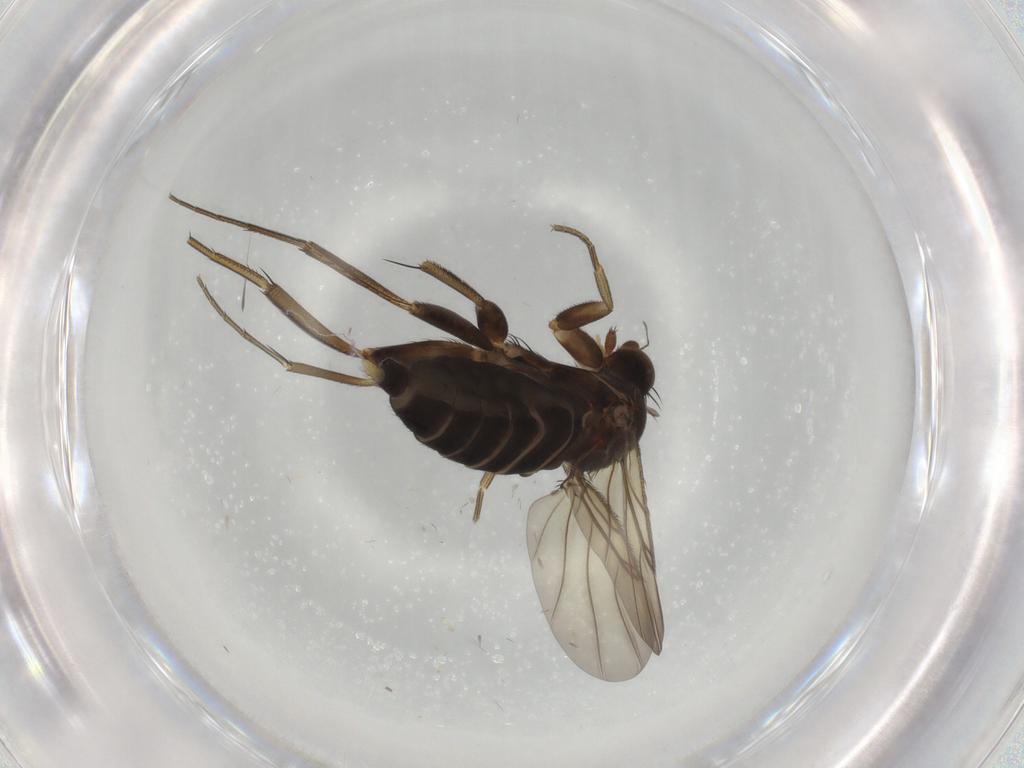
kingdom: Animalia
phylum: Arthropoda
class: Insecta
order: Diptera
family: Phoridae
